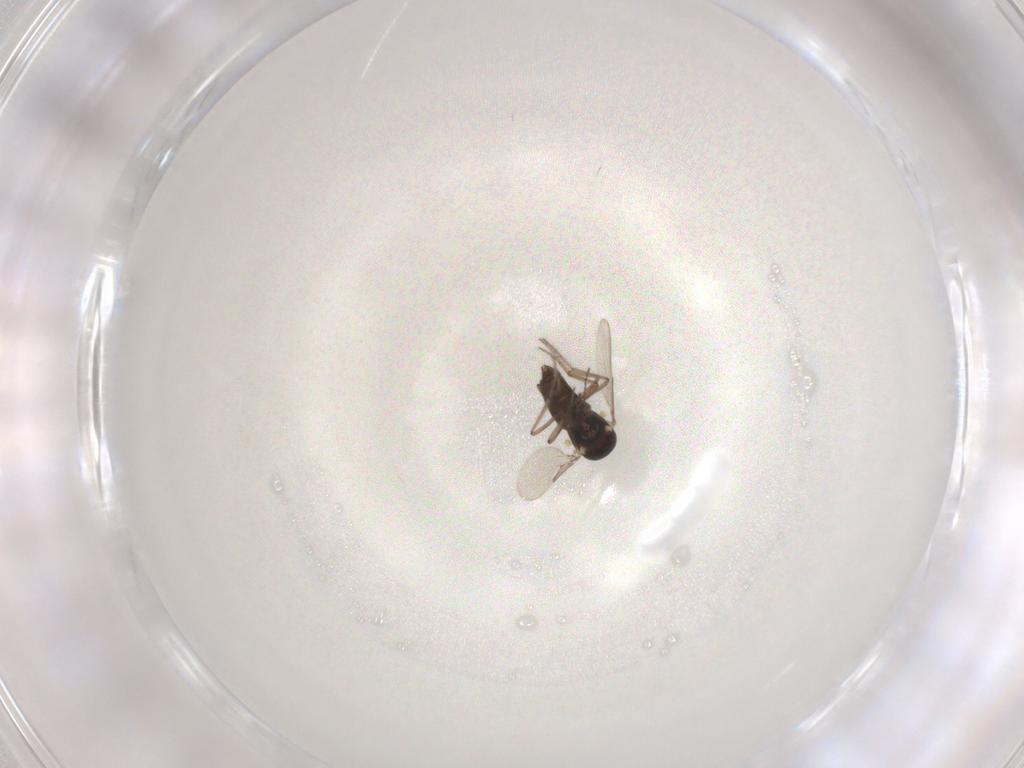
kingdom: Animalia
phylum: Arthropoda
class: Insecta
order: Diptera
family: Ceratopogonidae
